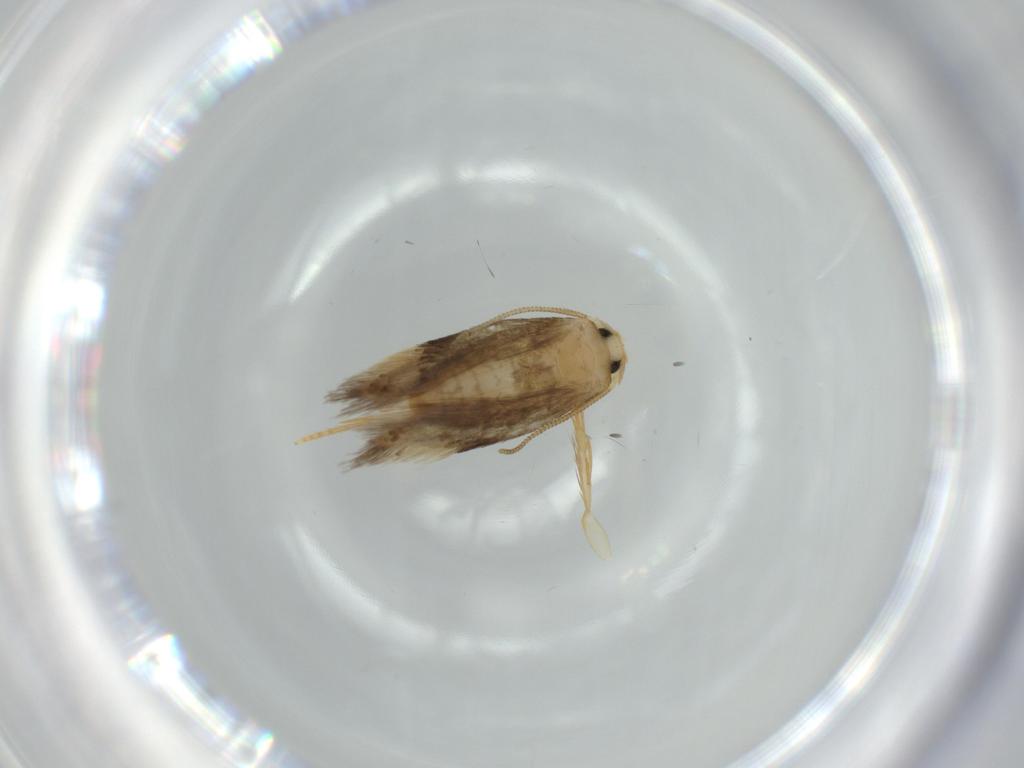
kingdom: Animalia
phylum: Arthropoda
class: Insecta
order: Lepidoptera
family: Nepticulidae
